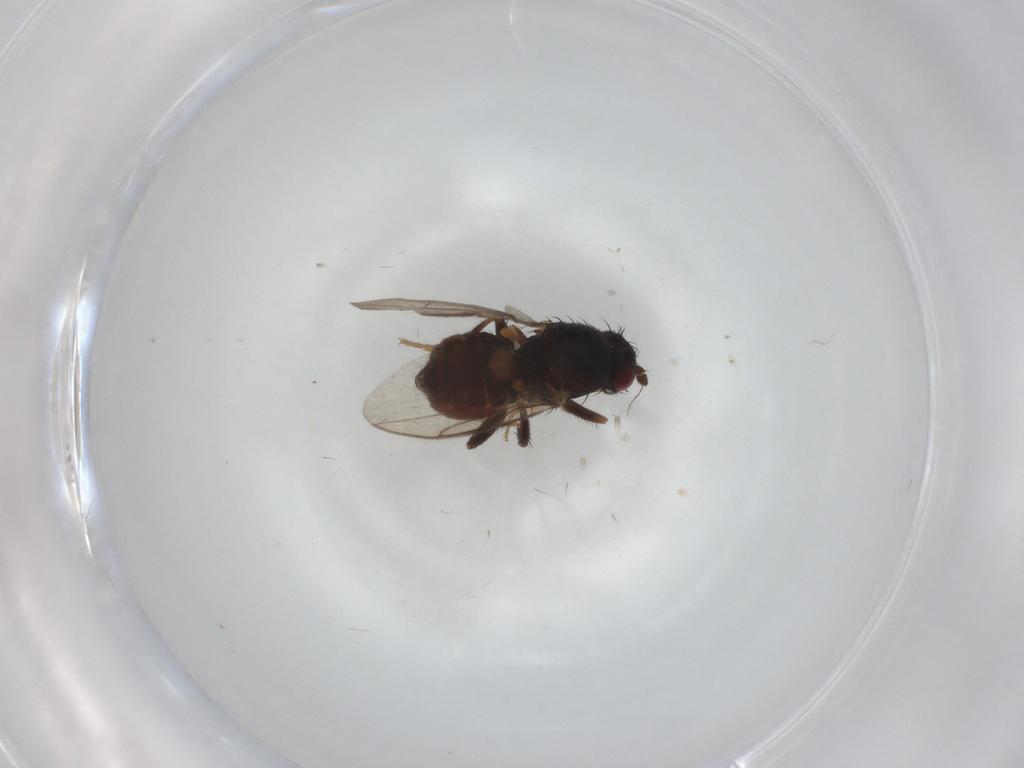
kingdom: Animalia
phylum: Arthropoda
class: Insecta
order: Diptera
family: Sphaeroceridae
